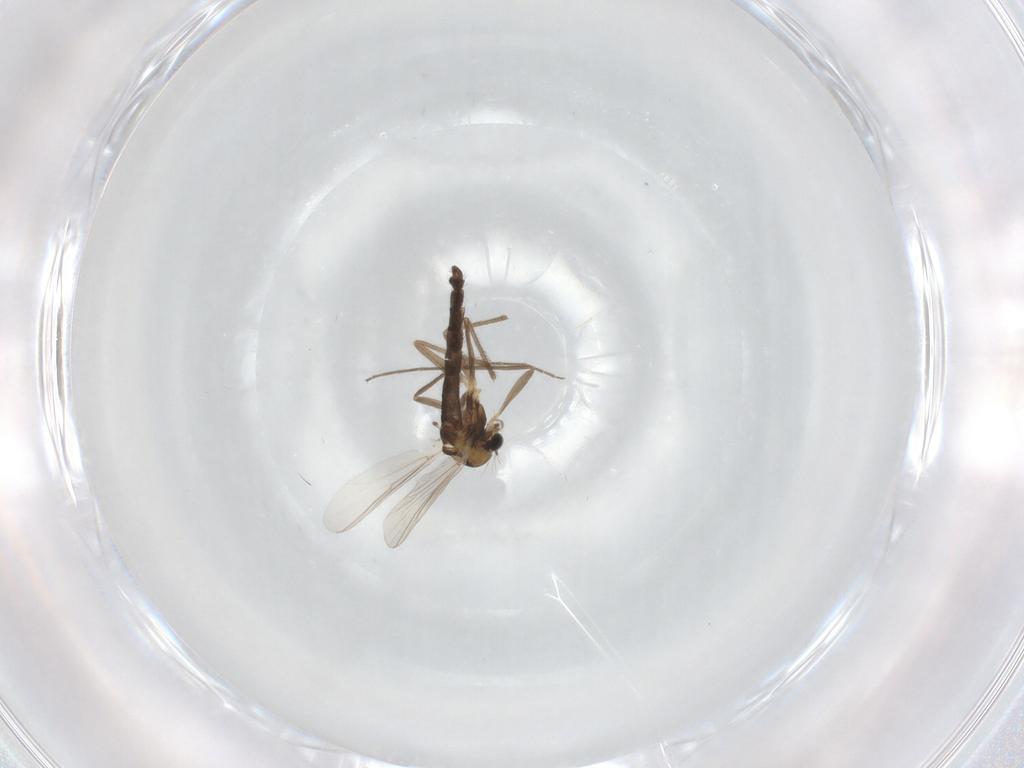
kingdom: Animalia
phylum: Arthropoda
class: Insecta
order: Diptera
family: Chironomidae
